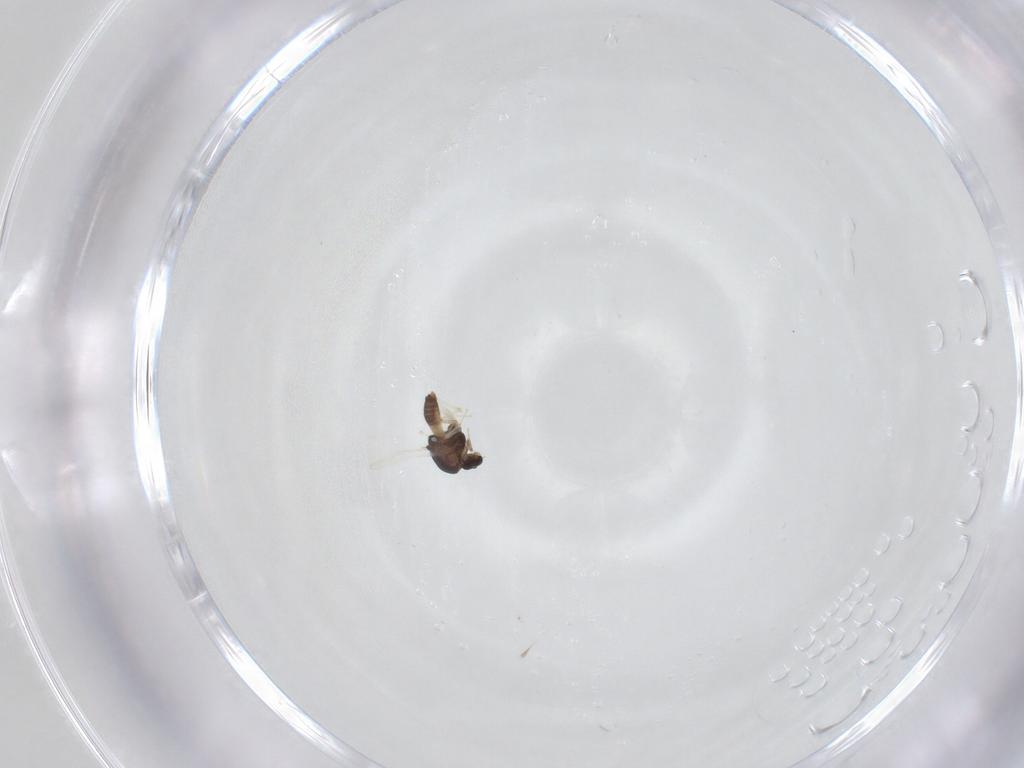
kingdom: Animalia
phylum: Arthropoda
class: Insecta
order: Diptera
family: Chironomidae
